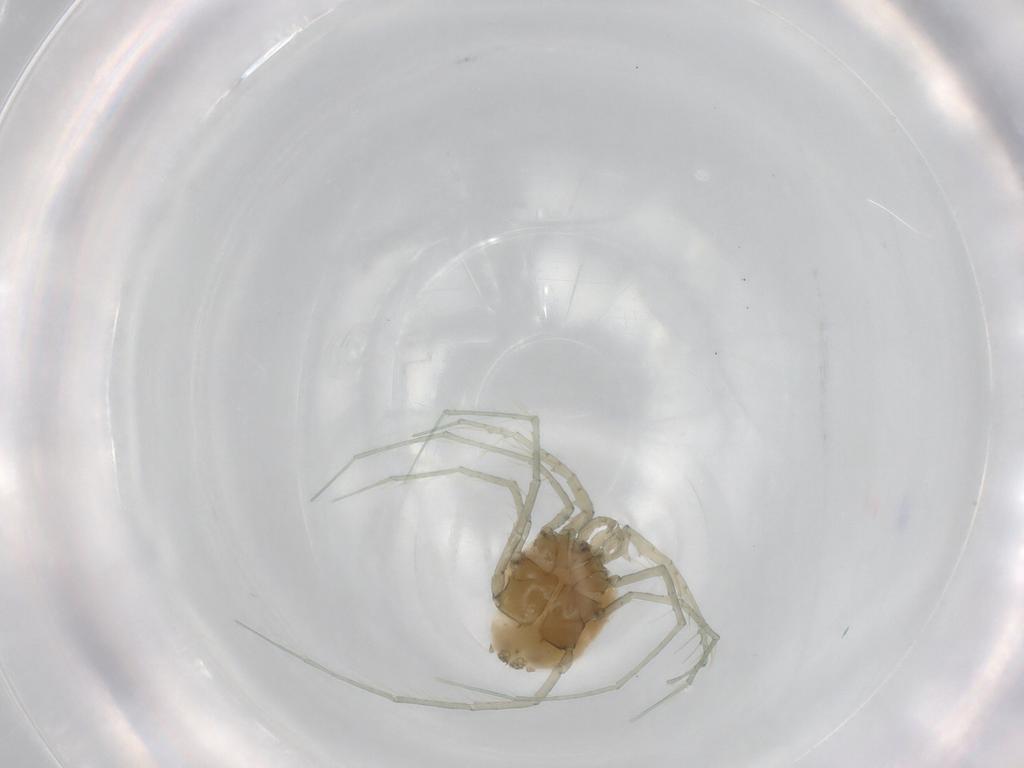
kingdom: Animalia
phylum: Arthropoda
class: Arachnida
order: Trombidiformes
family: Unionicolidae
